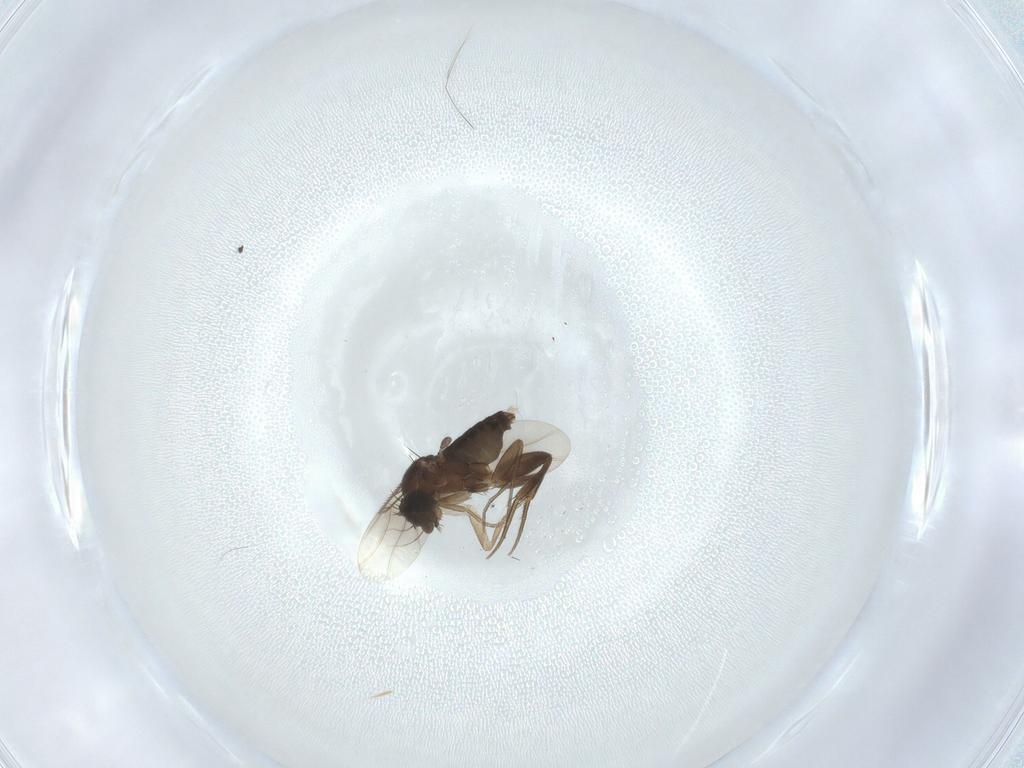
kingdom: Animalia
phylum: Arthropoda
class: Insecta
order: Diptera
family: Phoridae
